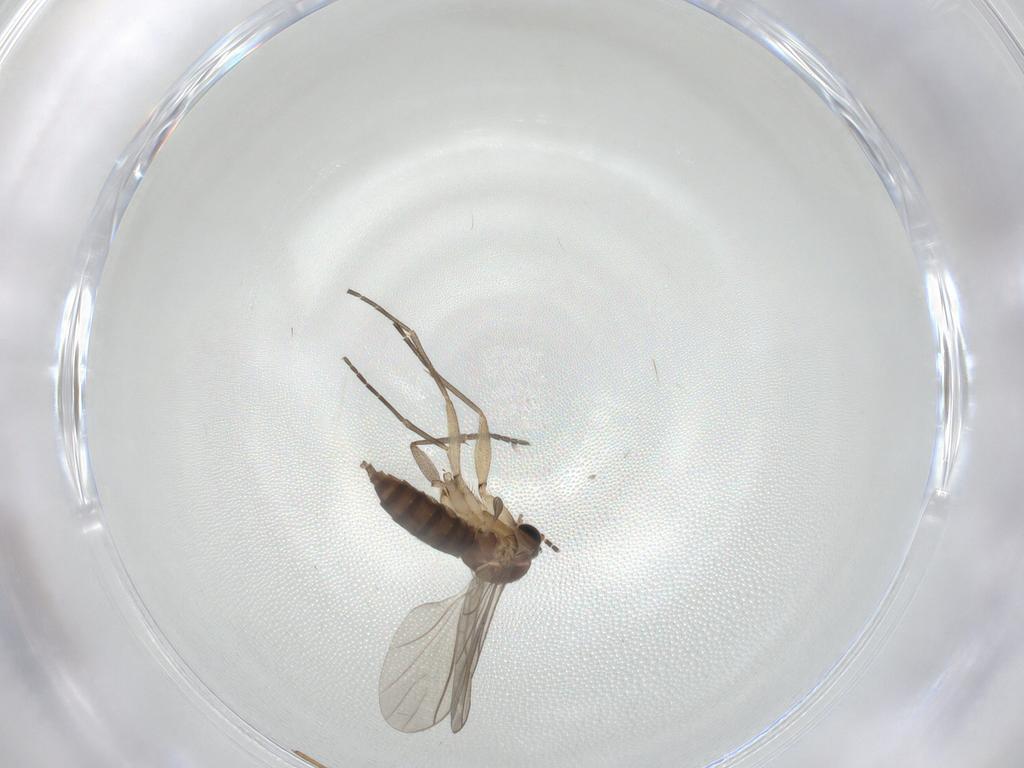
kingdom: Animalia
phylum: Arthropoda
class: Insecta
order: Diptera
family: Sciaridae
